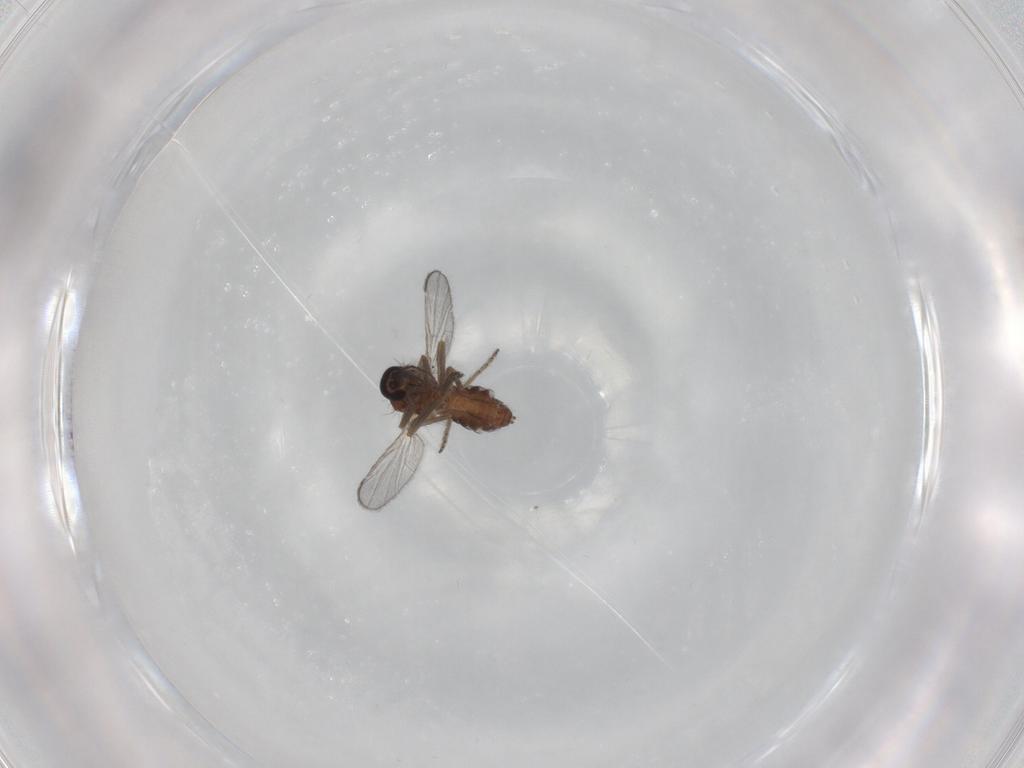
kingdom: Animalia
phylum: Arthropoda
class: Insecta
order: Diptera
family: Ceratopogonidae
